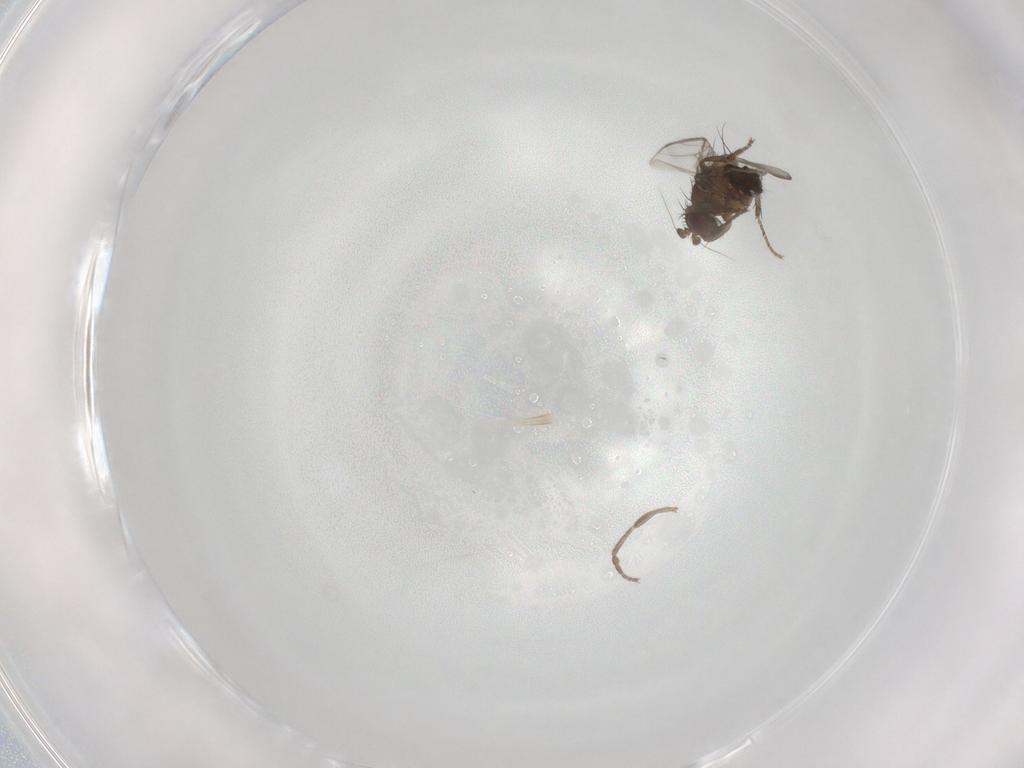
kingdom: Animalia
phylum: Arthropoda
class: Insecta
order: Diptera
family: Sphaeroceridae
